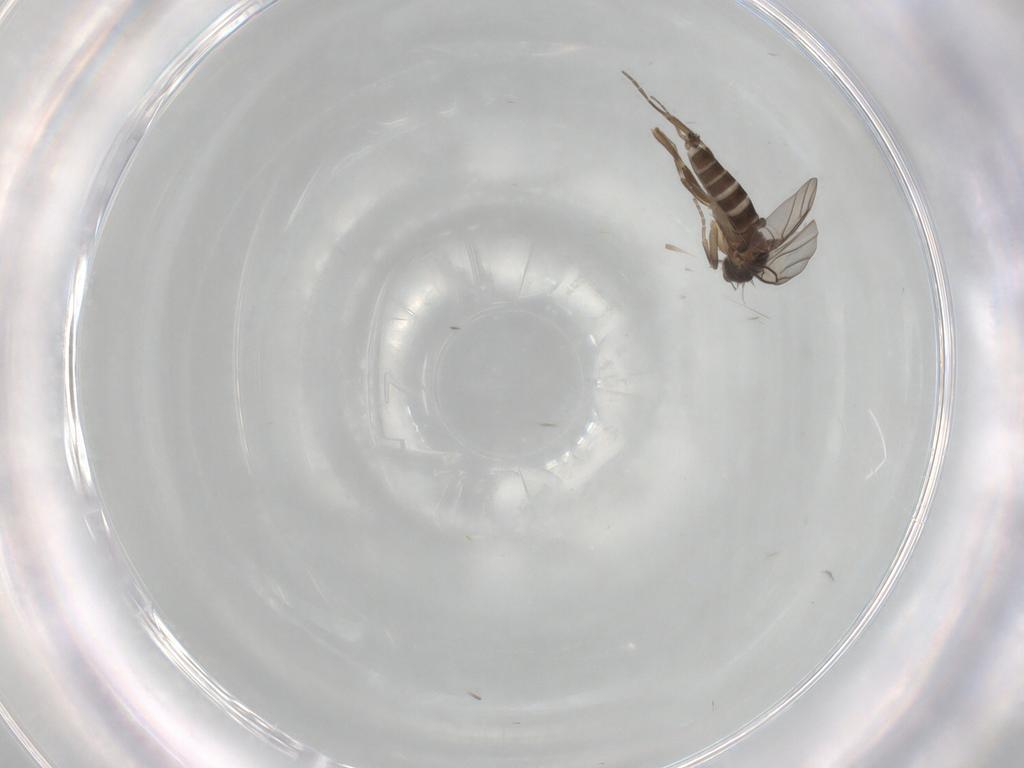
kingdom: Animalia
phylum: Arthropoda
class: Insecta
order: Diptera
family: Phoridae
